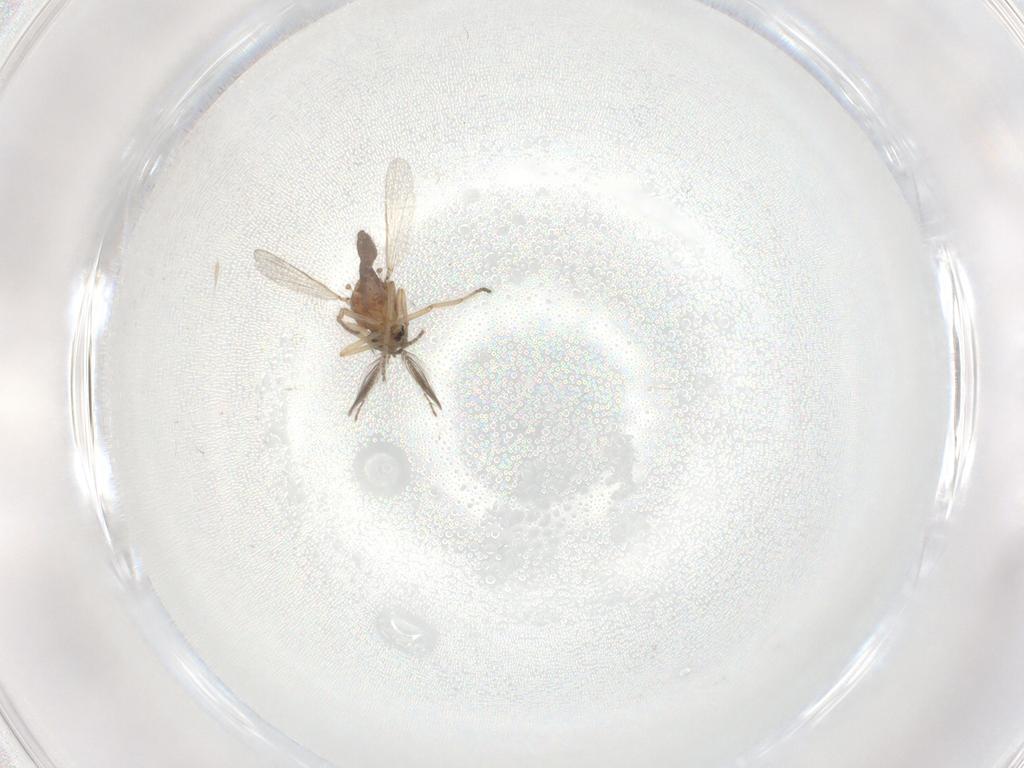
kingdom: Animalia
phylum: Arthropoda
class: Insecta
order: Diptera
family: Ceratopogonidae
